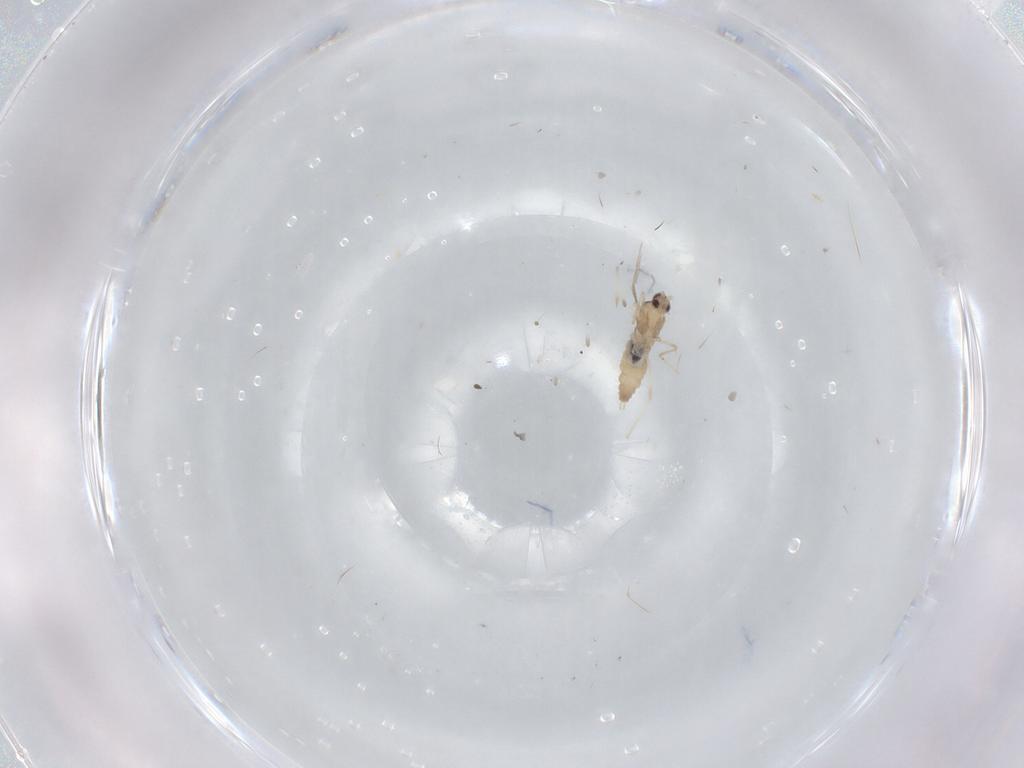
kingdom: Animalia
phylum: Arthropoda
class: Insecta
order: Diptera
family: Cecidomyiidae
